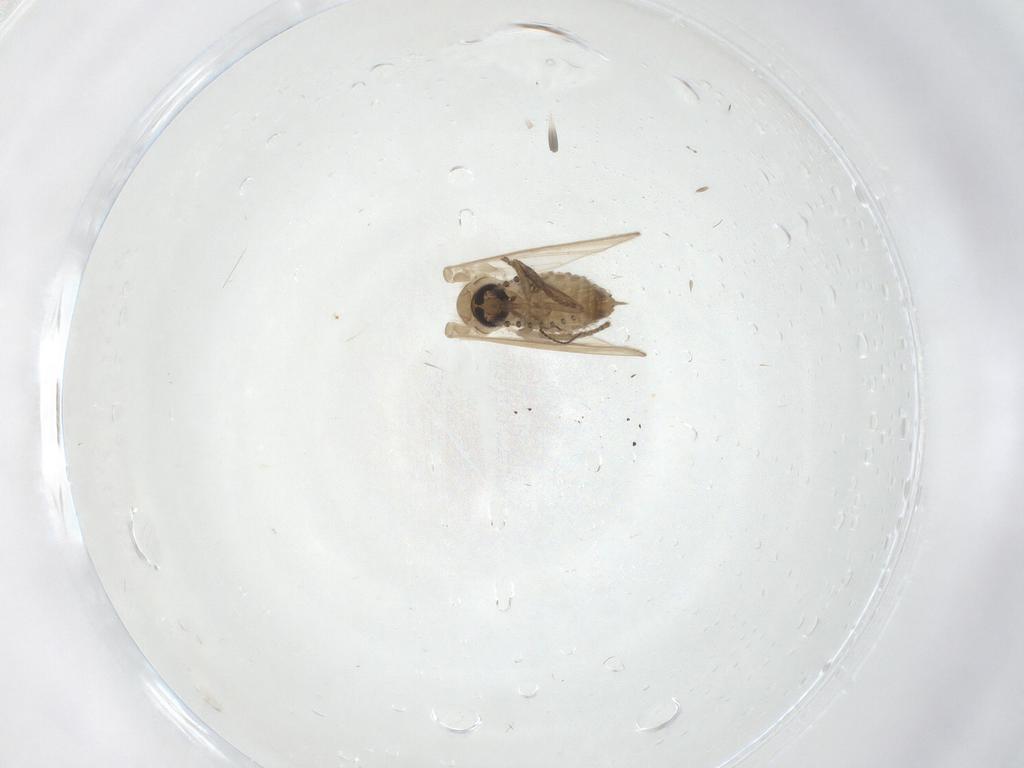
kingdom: Animalia
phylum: Arthropoda
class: Insecta
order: Diptera
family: Psychodidae
